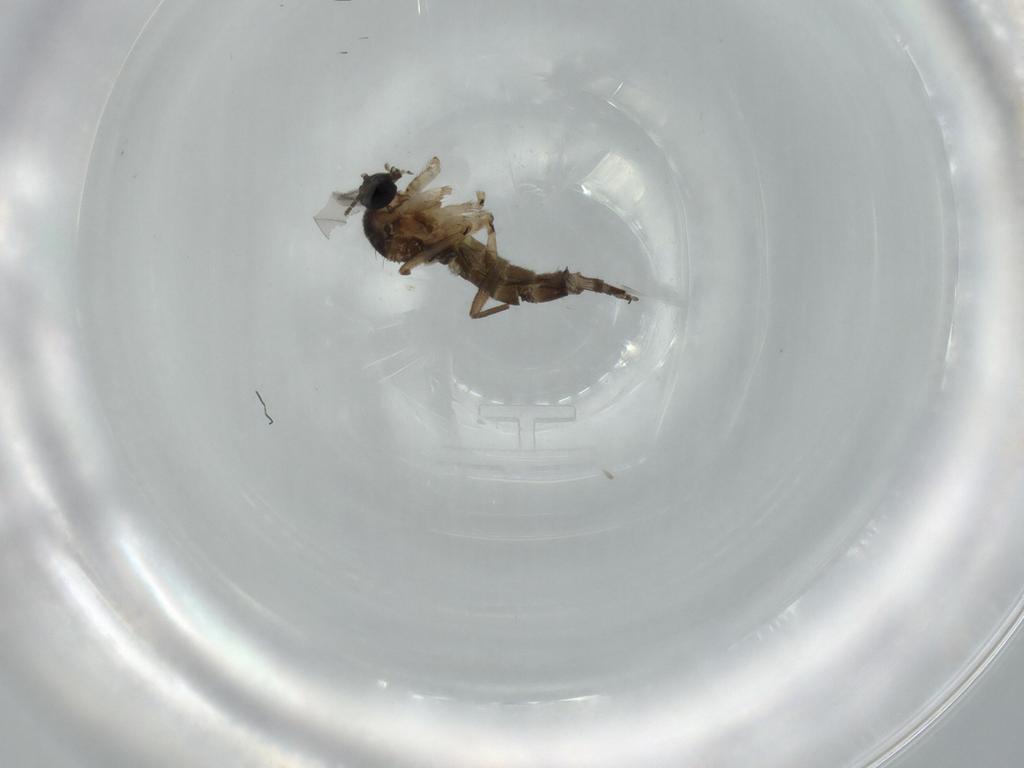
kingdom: Animalia
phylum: Arthropoda
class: Insecta
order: Diptera
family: Sciaridae
